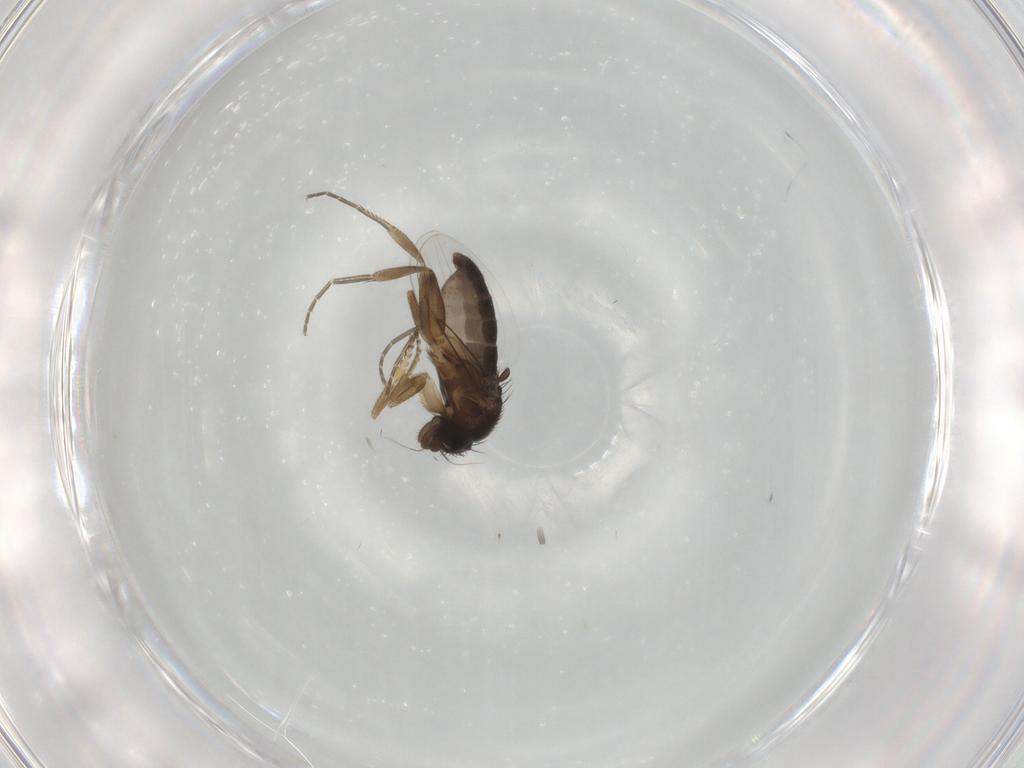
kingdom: Animalia
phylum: Arthropoda
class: Insecta
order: Diptera
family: Phoridae
